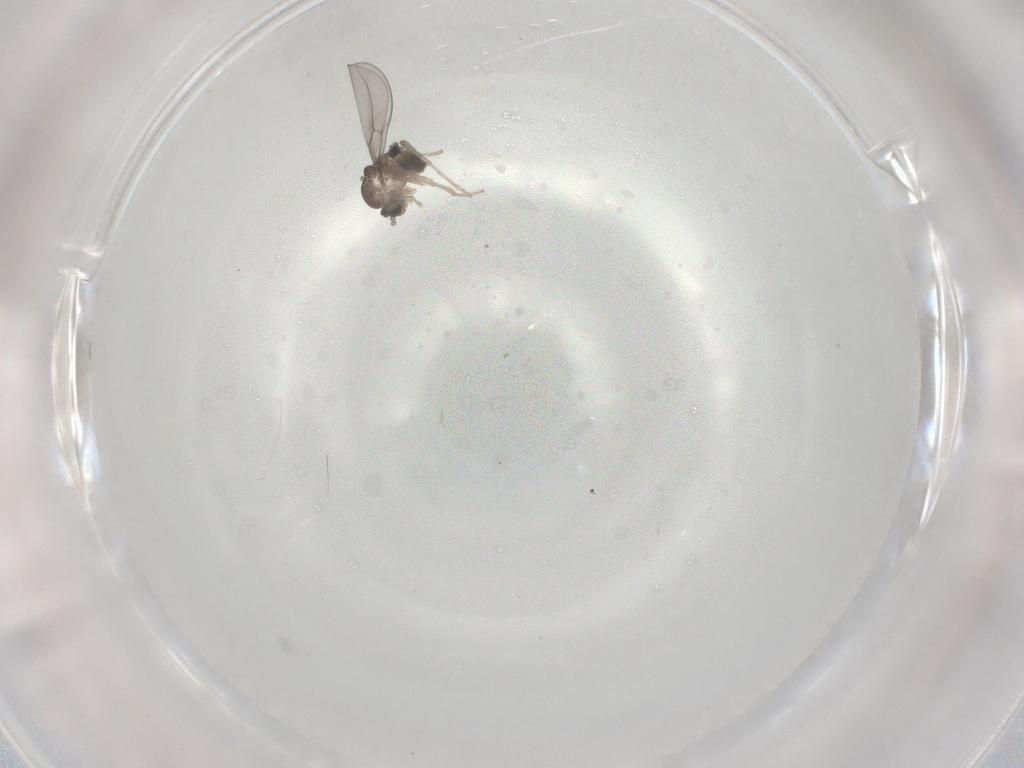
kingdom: Animalia
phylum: Arthropoda
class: Insecta
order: Diptera
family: Cecidomyiidae
